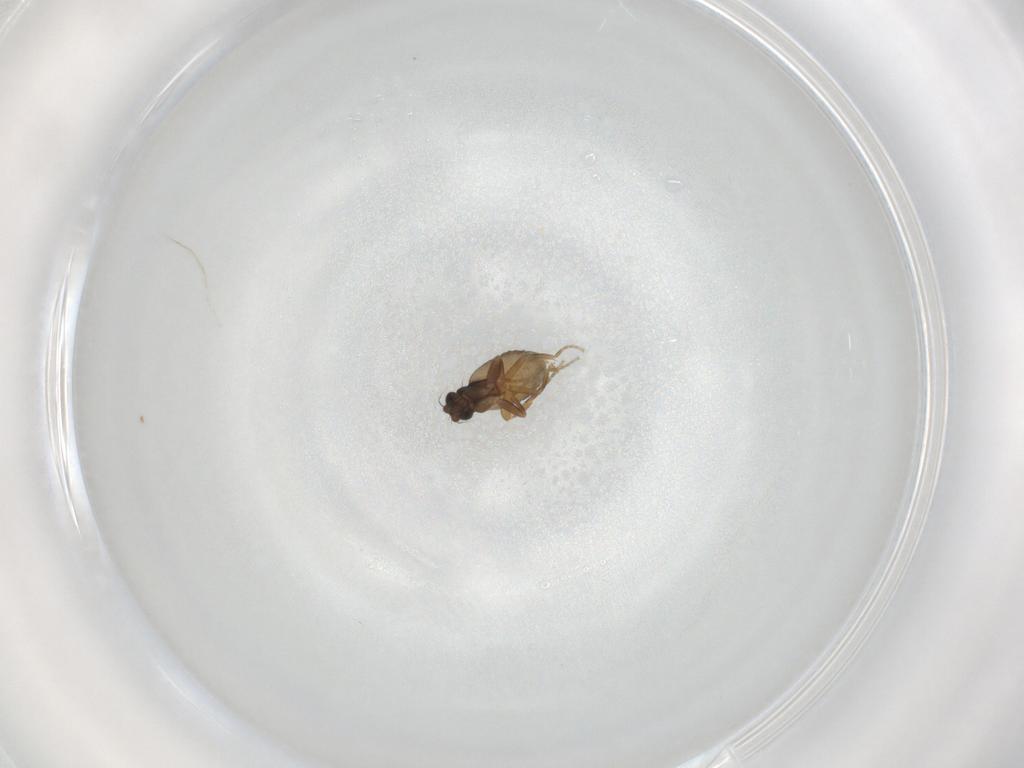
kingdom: Animalia
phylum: Arthropoda
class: Insecta
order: Diptera
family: Phoridae
